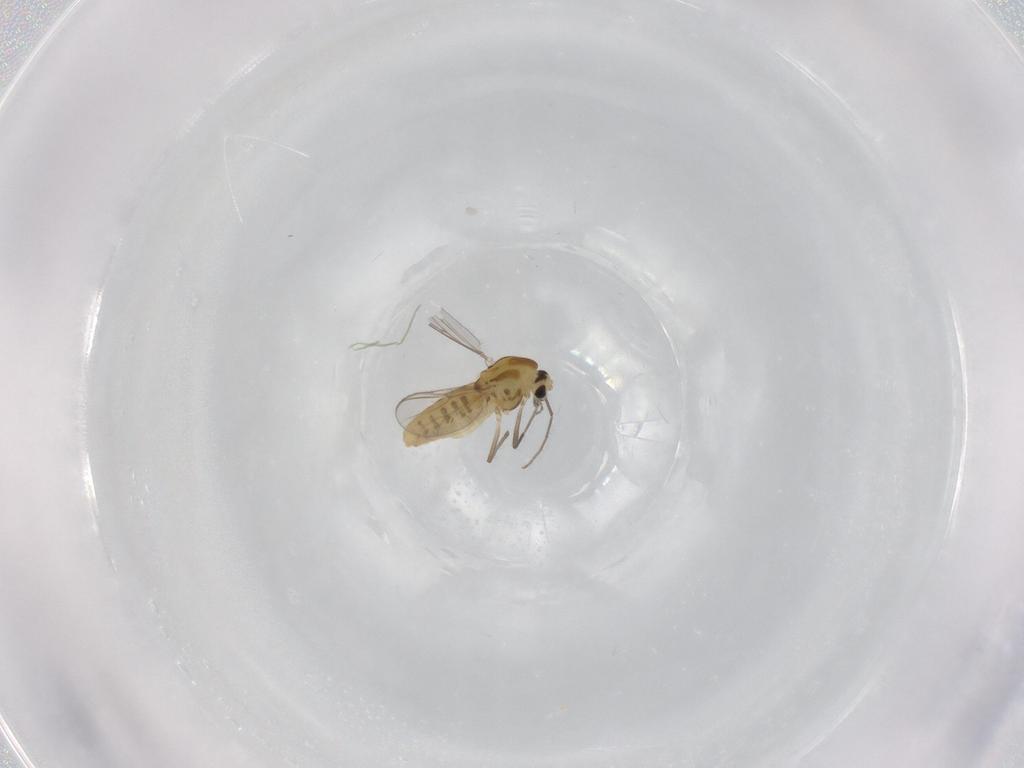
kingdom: Animalia
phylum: Arthropoda
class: Insecta
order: Diptera
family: Chironomidae
